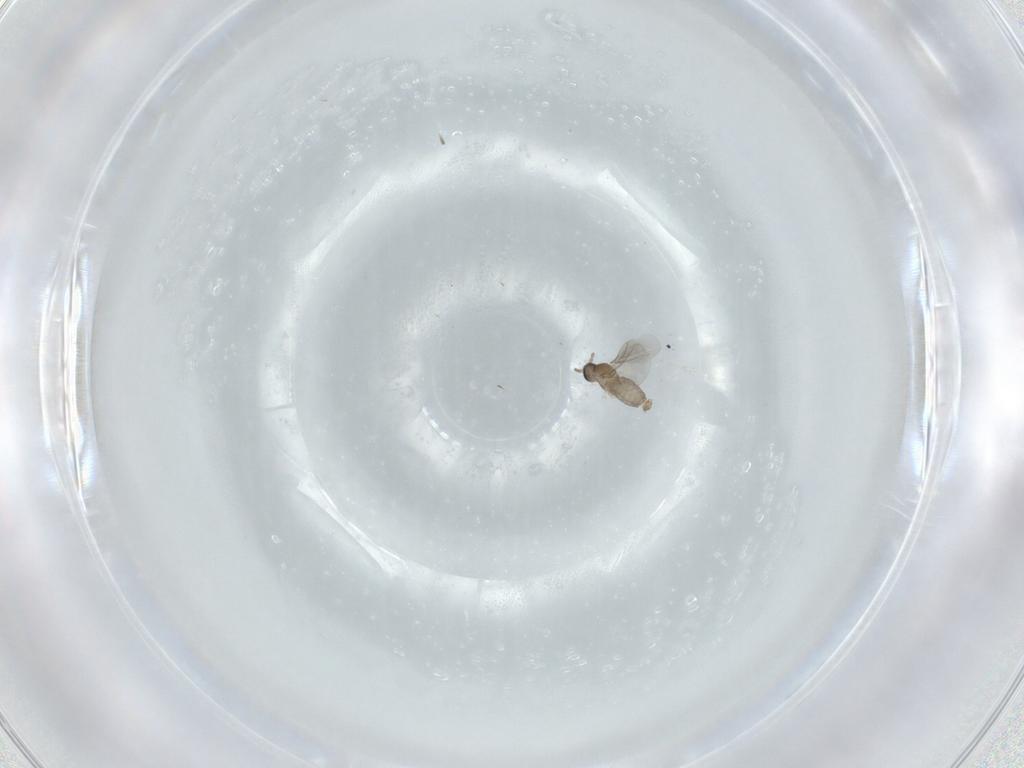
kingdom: Animalia
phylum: Arthropoda
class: Insecta
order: Diptera
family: Cecidomyiidae
